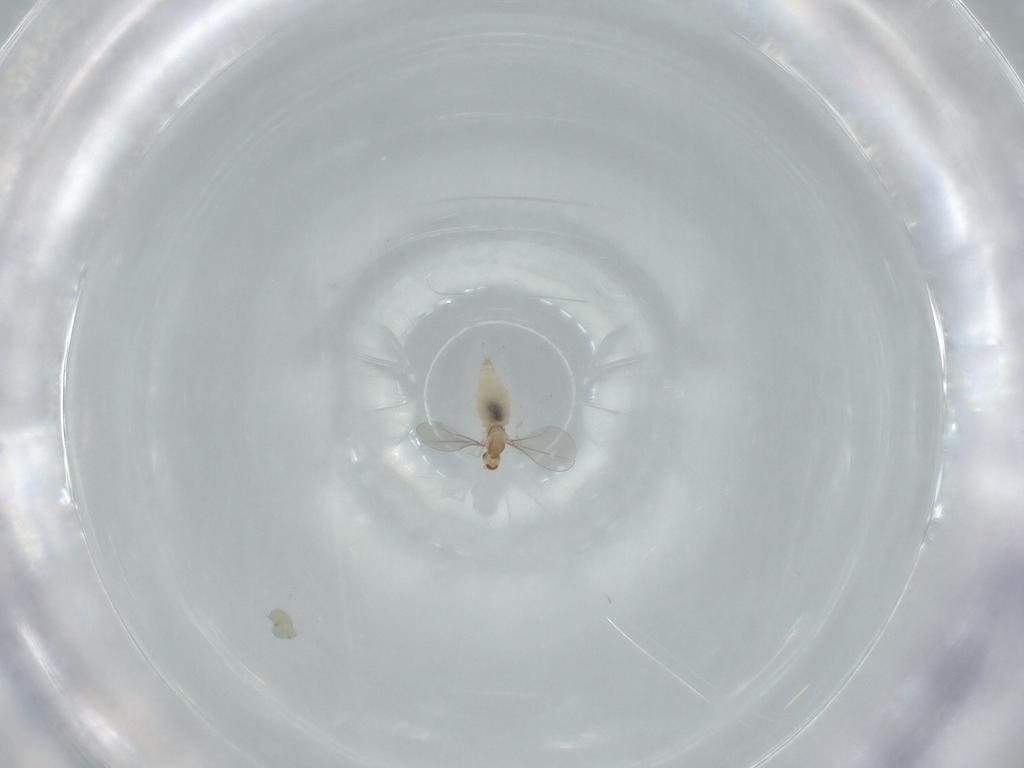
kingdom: Animalia
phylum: Arthropoda
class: Insecta
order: Diptera
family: Cecidomyiidae
